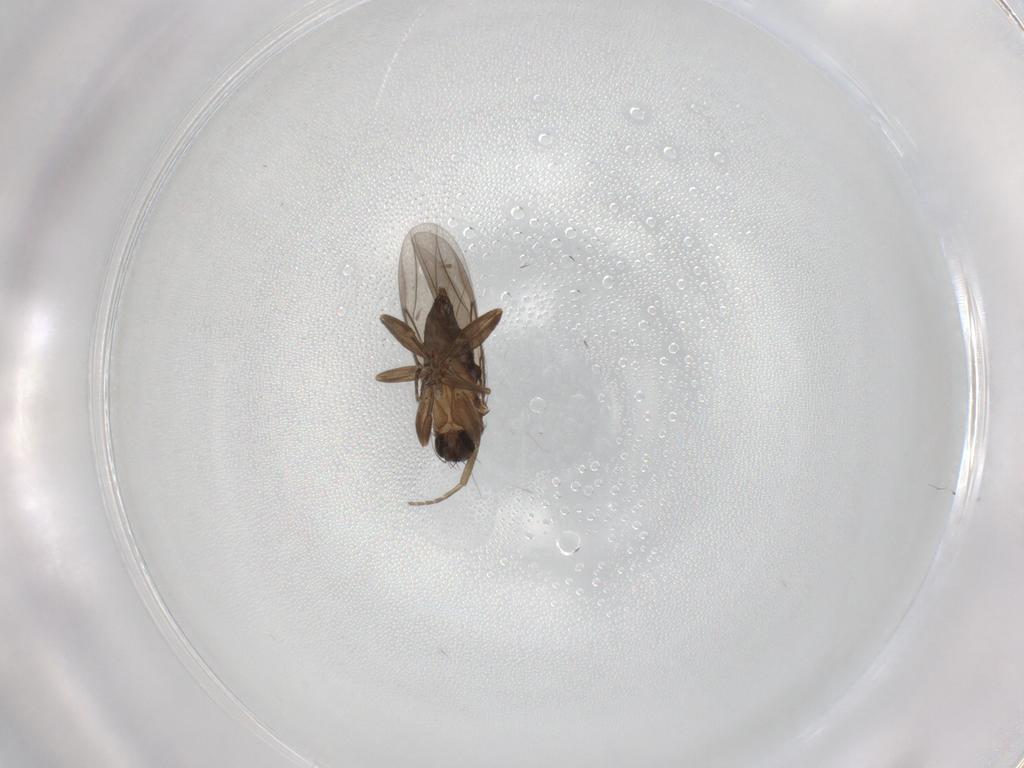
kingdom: Animalia
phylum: Arthropoda
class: Insecta
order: Diptera
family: Phoridae
